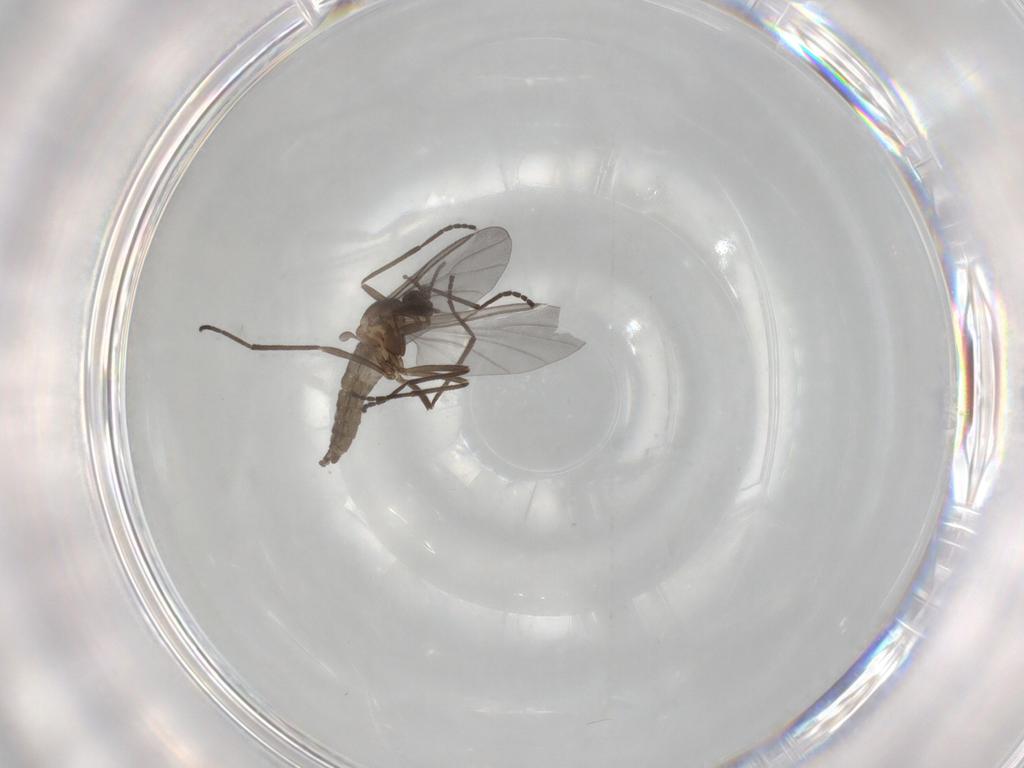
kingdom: Animalia
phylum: Arthropoda
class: Insecta
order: Diptera
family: Cecidomyiidae
